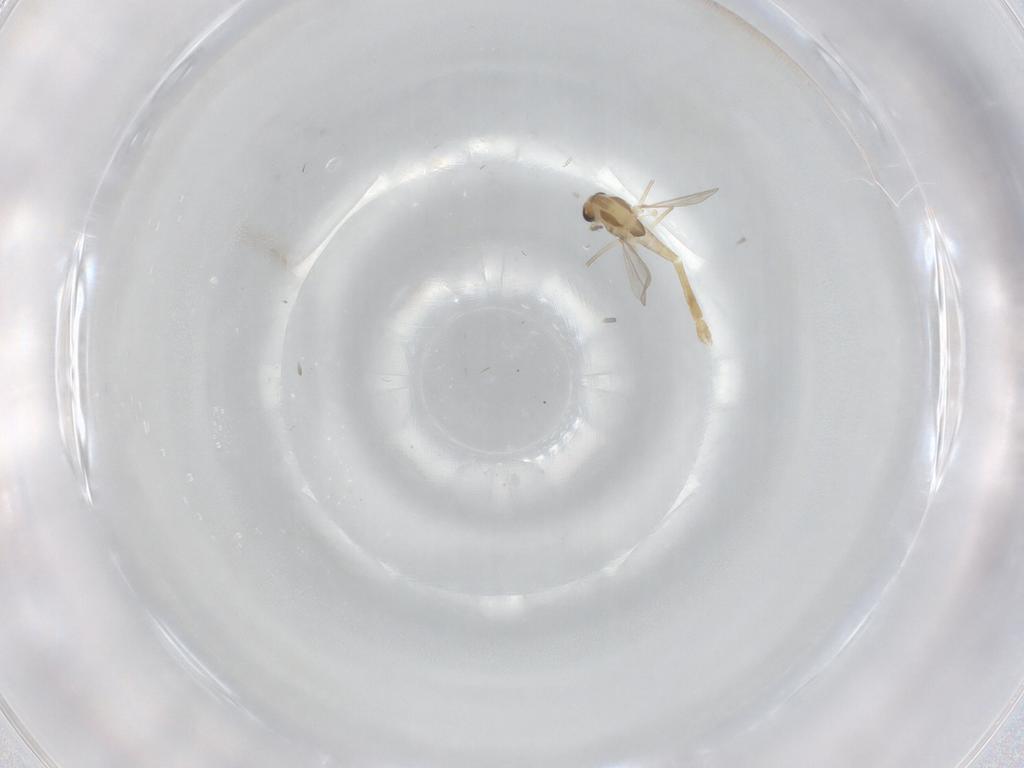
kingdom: Animalia
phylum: Arthropoda
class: Insecta
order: Diptera
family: Chironomidae
